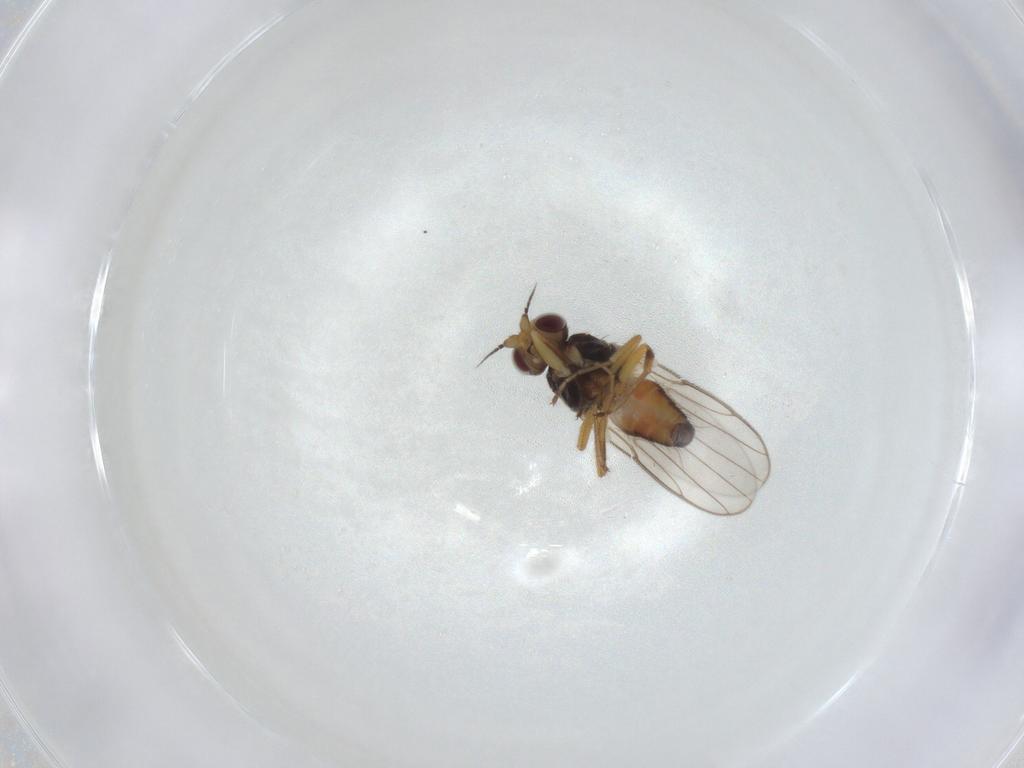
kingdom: Animalia
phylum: Arthropoda
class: Insecta
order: Diptera
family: Chloropidae
